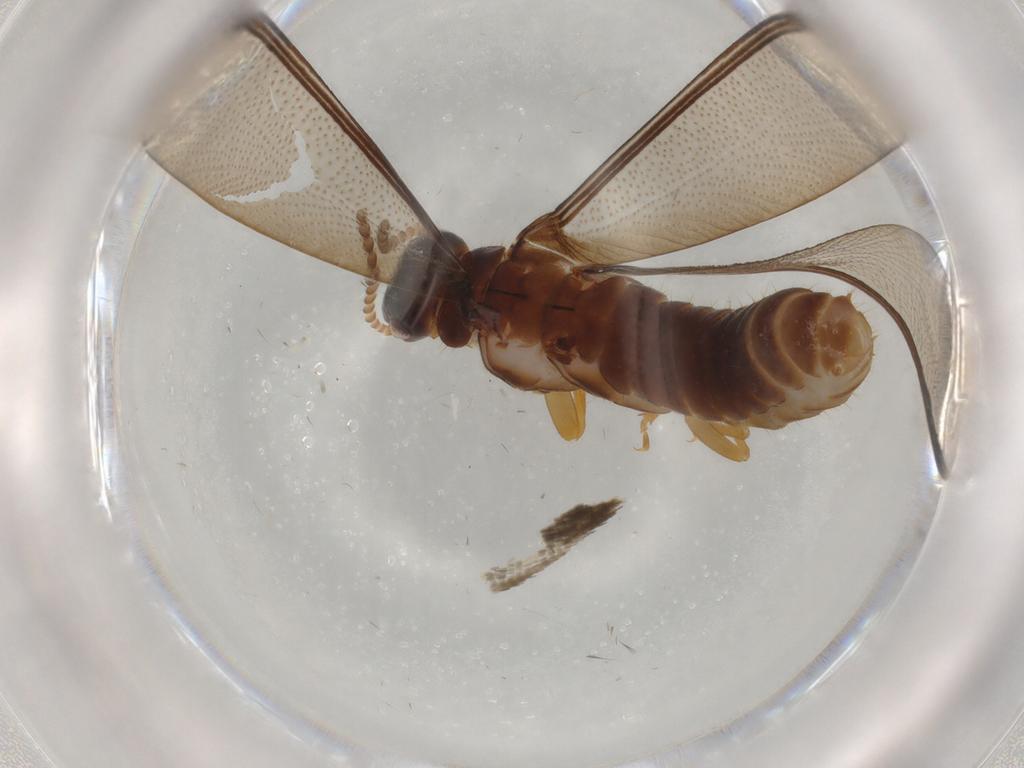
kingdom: Animalia
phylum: Arthropoda
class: Insecta
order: Blattodea
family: Kalotermitidae
